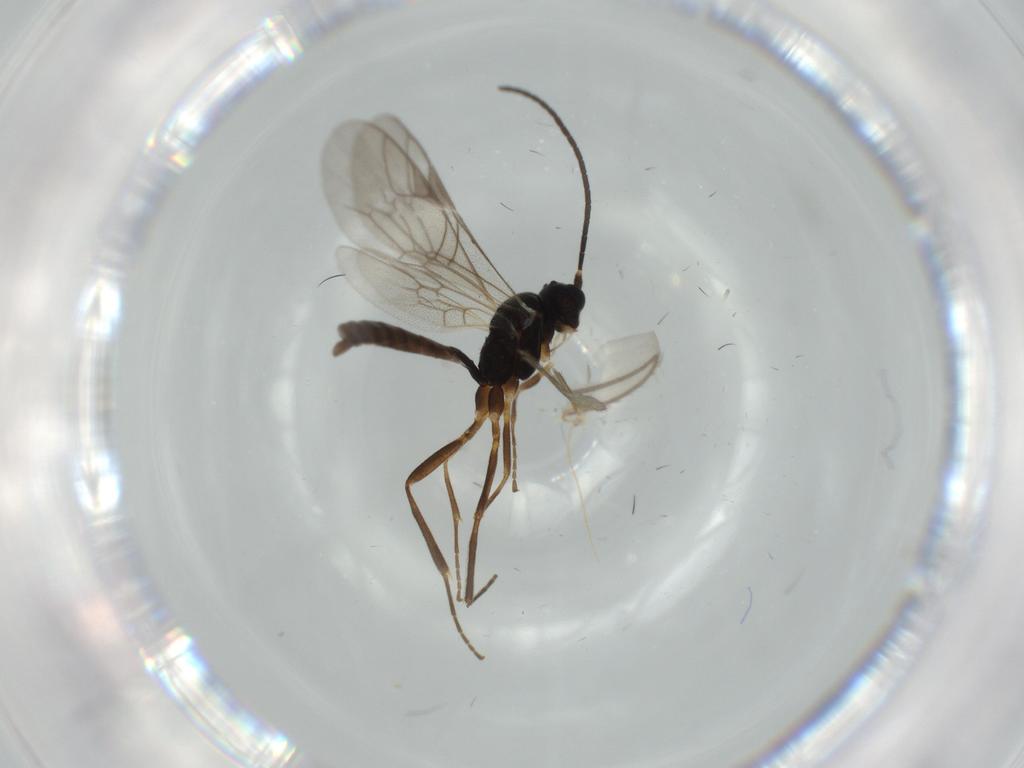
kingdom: Animalia
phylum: Arthropoda
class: Insecta
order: Hymenoptera
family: Ichneumonidae
